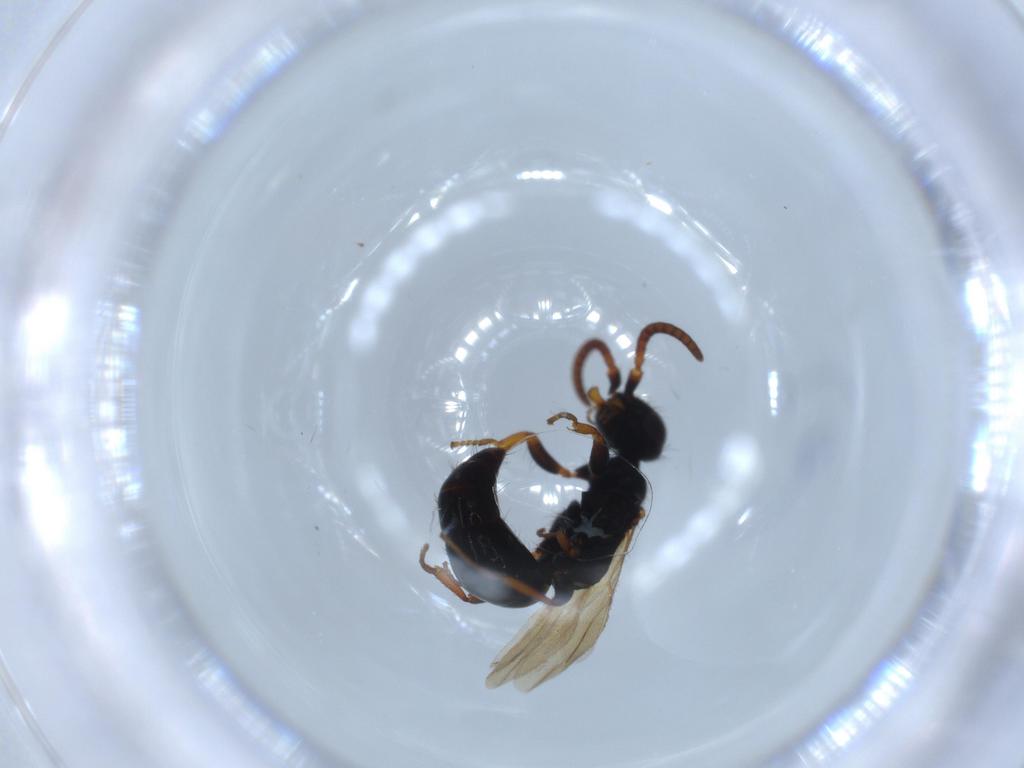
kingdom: Animalia
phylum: Arthropoda
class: Insecta
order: Hymenoptera
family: Bethylidae
